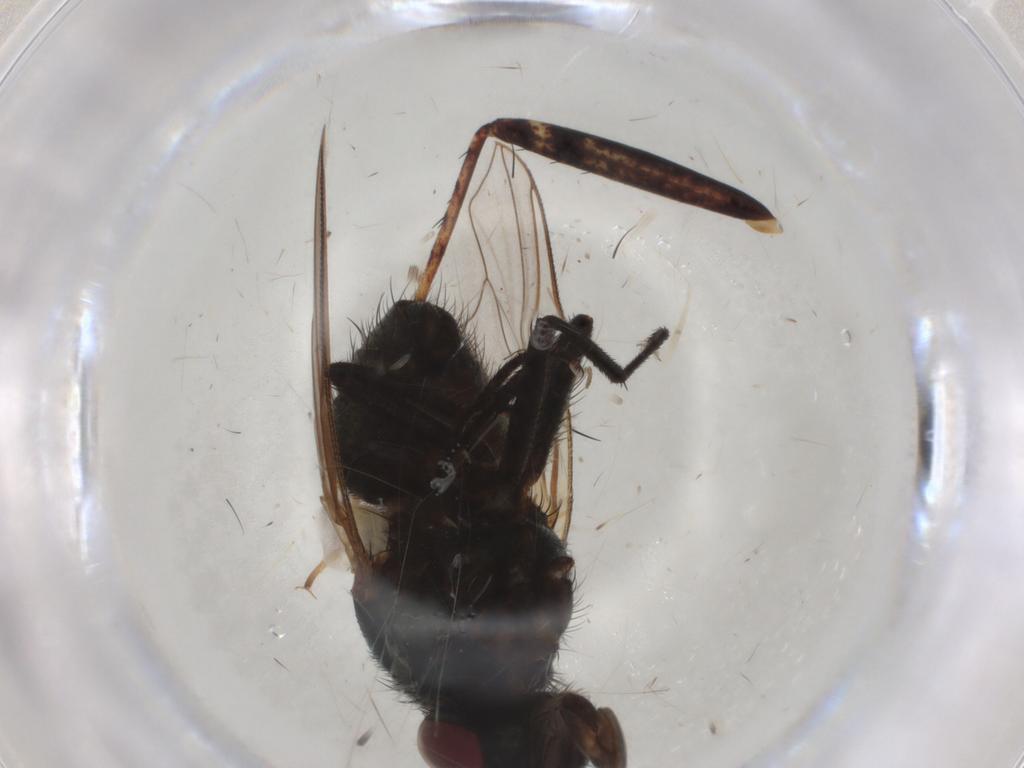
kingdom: Animalia
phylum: Arthropoda
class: Insecta
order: Diptera
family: Muscidae
